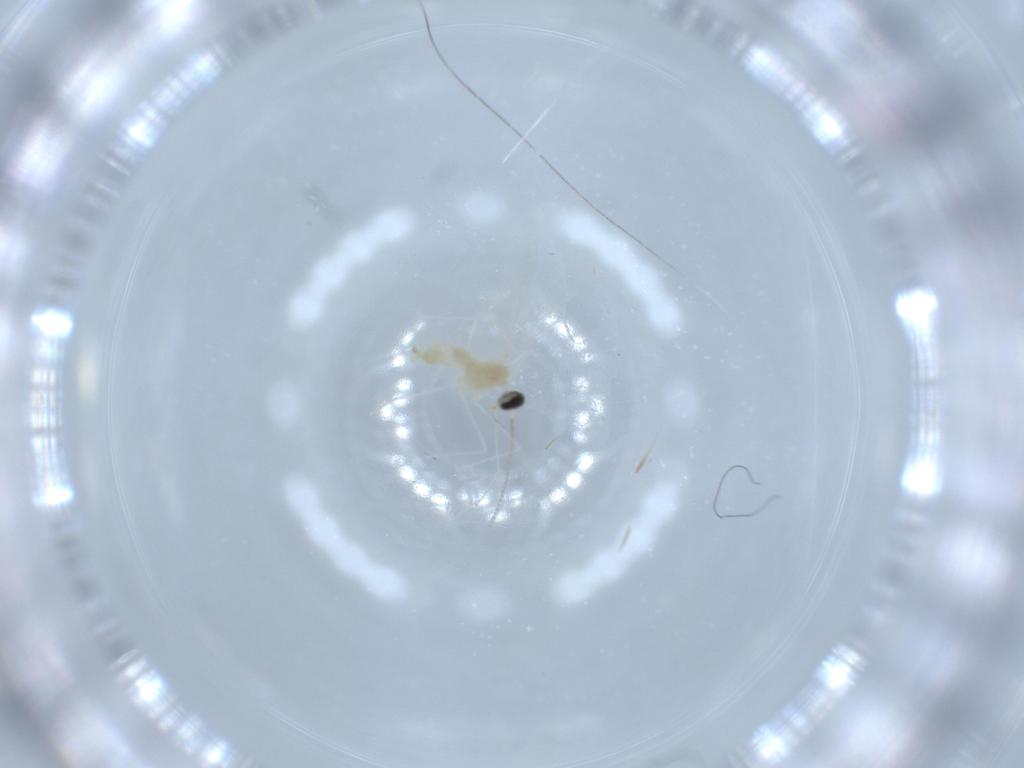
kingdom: Animalia
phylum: Arthropoda
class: Insecta
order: Diptera
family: Cecidomyiidae
